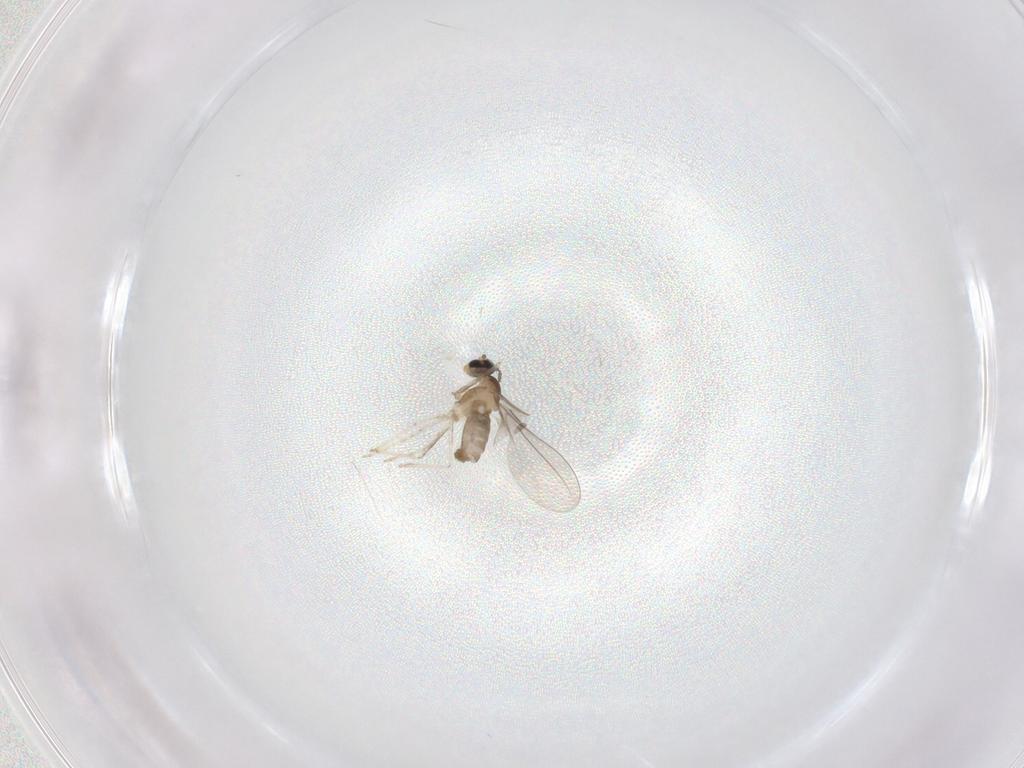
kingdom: Animalia
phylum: Arthropoda
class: Insecta
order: Diptera
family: Cecidomyiidae
